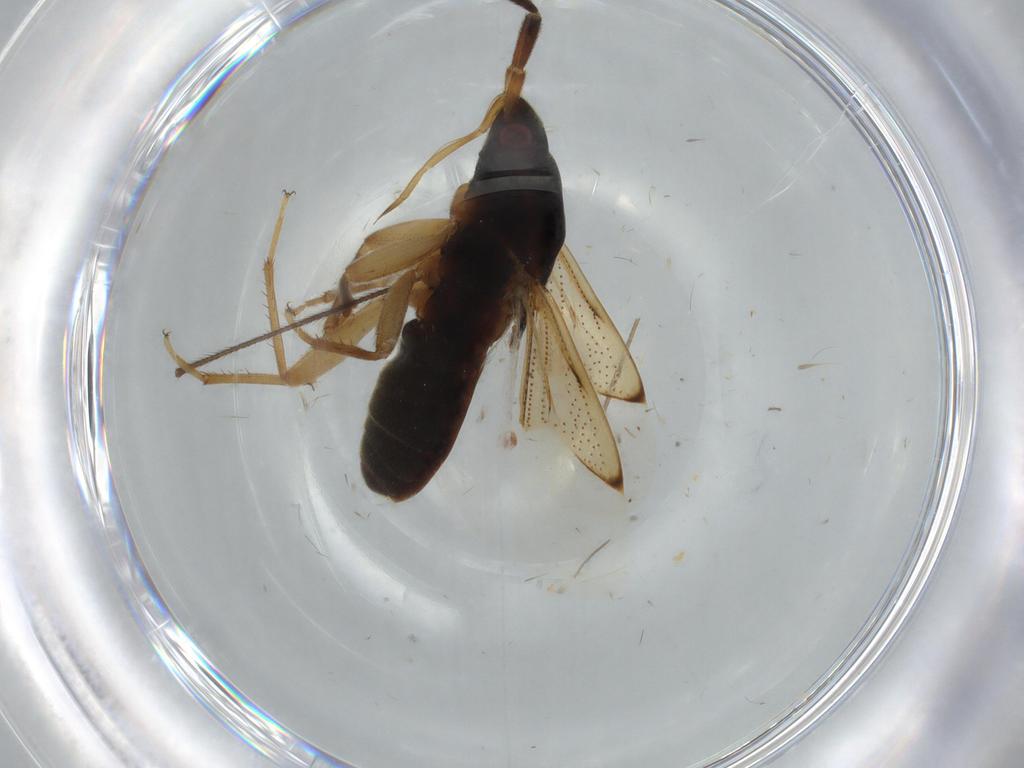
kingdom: Animalia
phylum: Arthropoda
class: Insecta
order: Hemiptera
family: Rhyparochromidae
